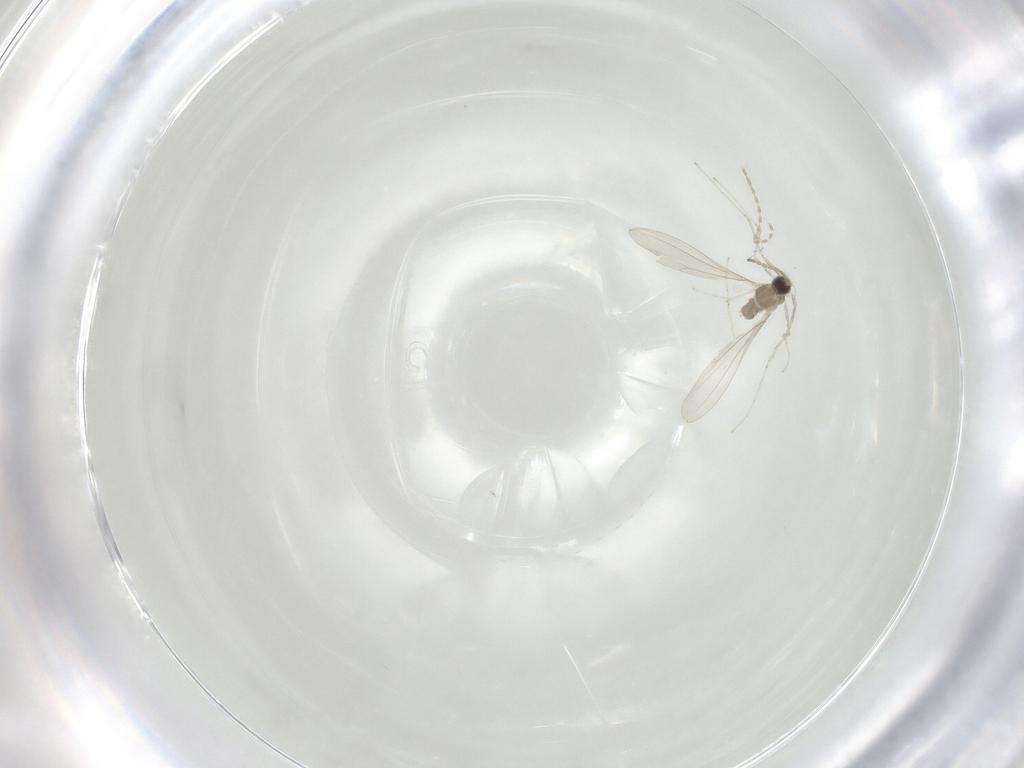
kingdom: Animalia
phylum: Arthropoda
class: Insecta
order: Diptera
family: Cecidomyiidae
